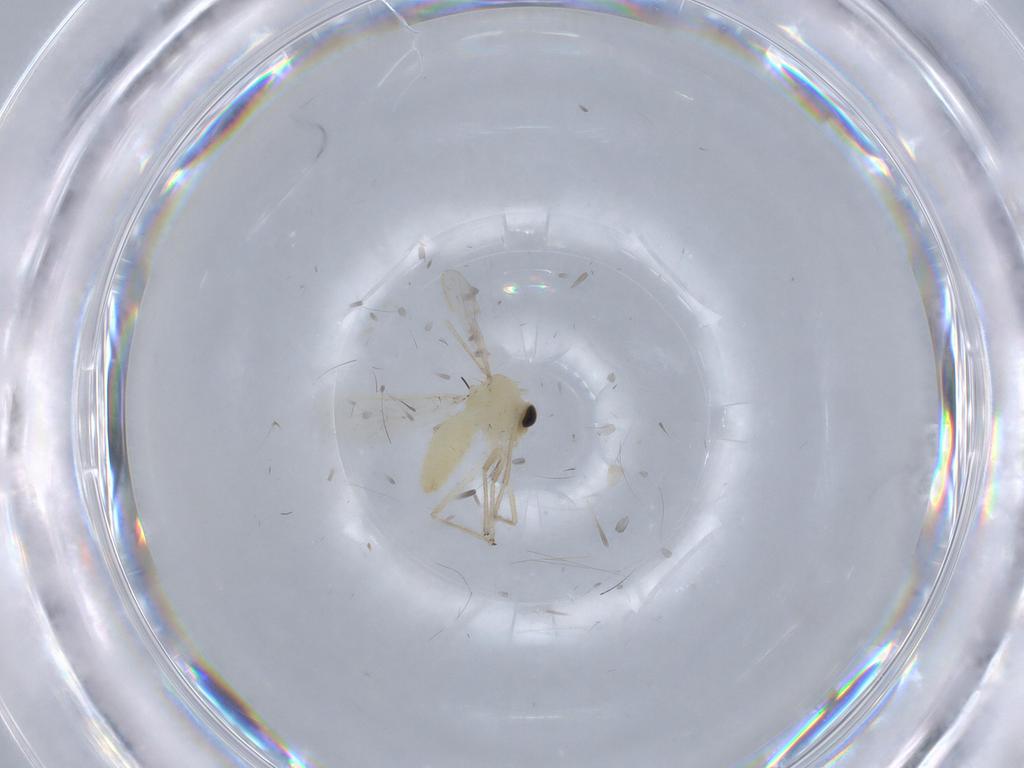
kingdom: Animalia
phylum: Arthropoda
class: Insecta
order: Diptera
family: Chironomidae
